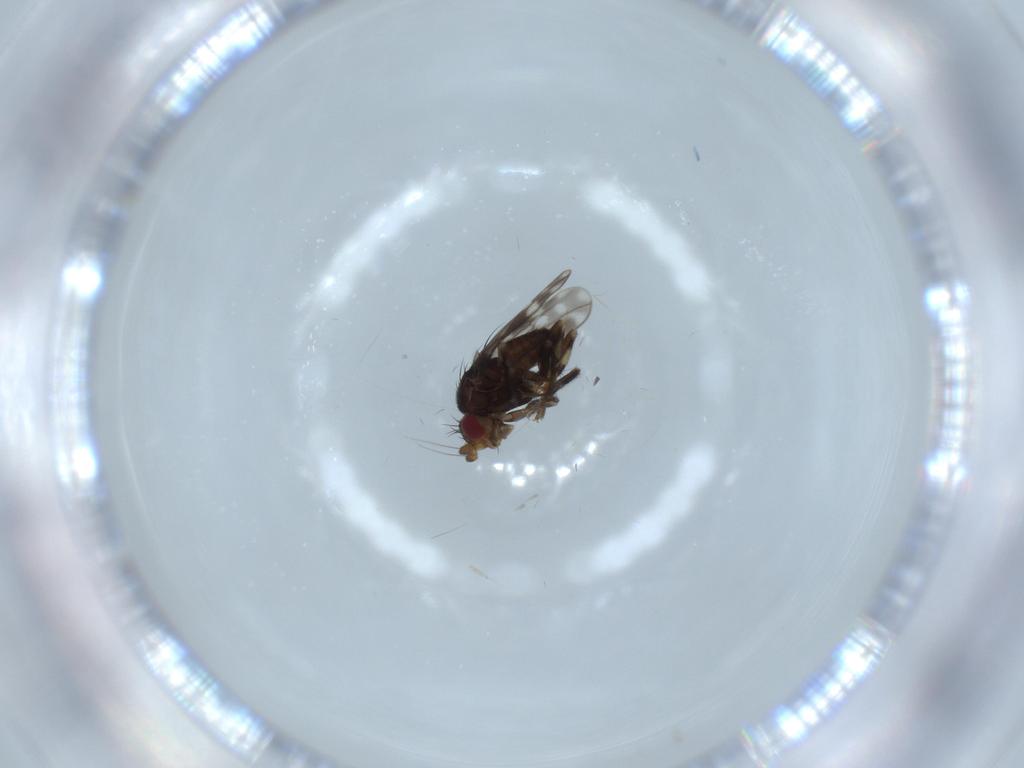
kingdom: Animalia
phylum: Arthropoda
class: Insecta
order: Diptera
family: Sphaeroceridae
